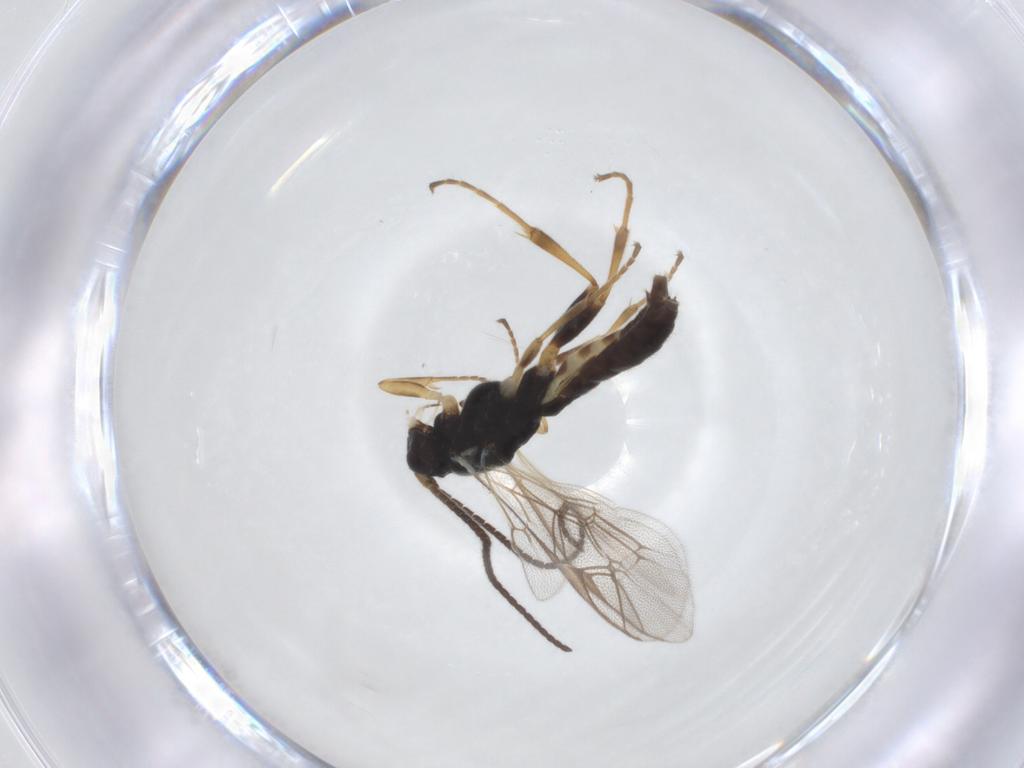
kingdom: Animalia
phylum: Arthropoda
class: Insecta
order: Hymenoptera
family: Ichneumonidae
